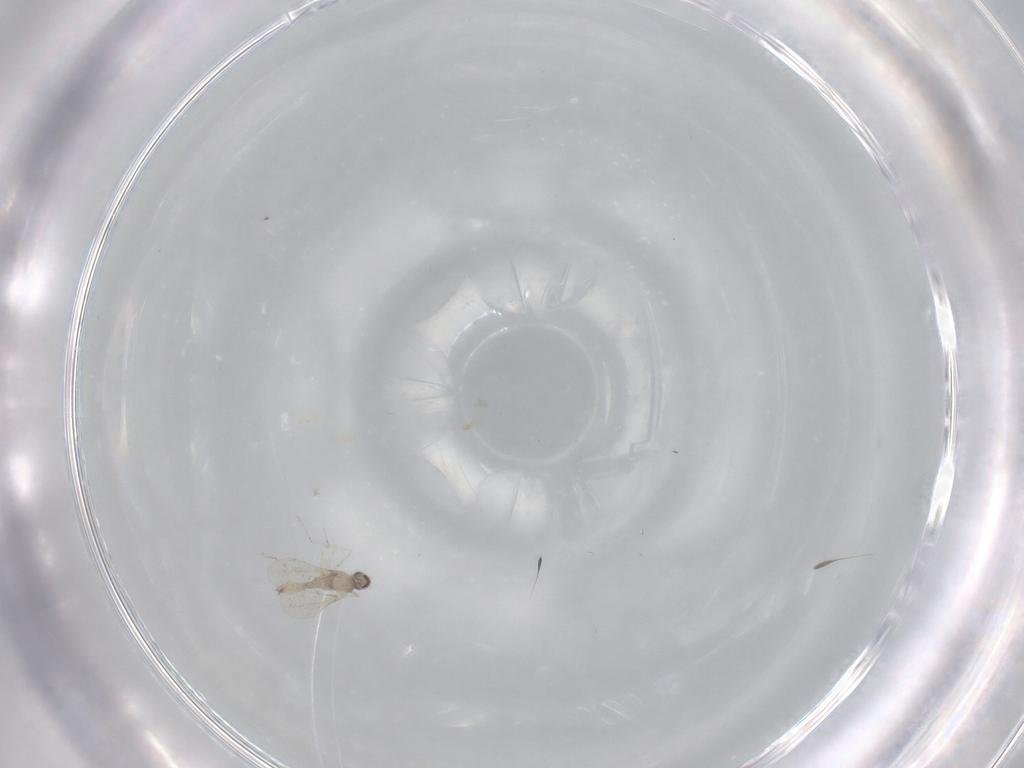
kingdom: Animalia
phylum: Arthropoda
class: Insecta
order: Diptera
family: Cecidomyiidae
